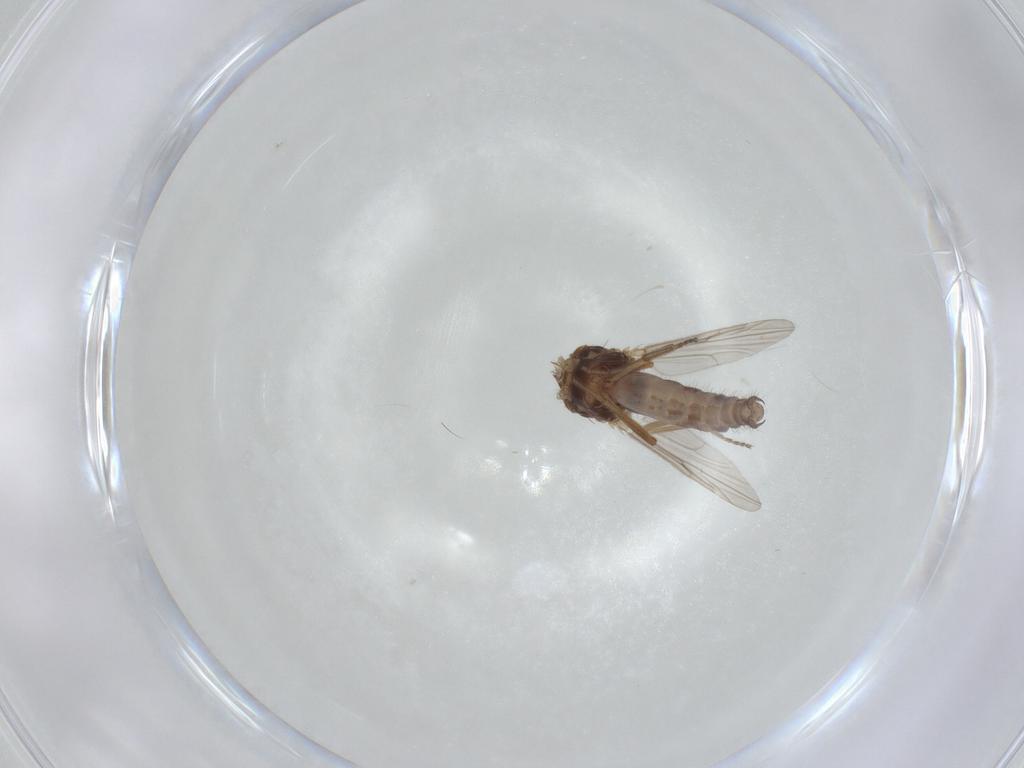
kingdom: Animalia
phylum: Arthropoda
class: Insecta
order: Diptera
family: Ceratopogonidae
